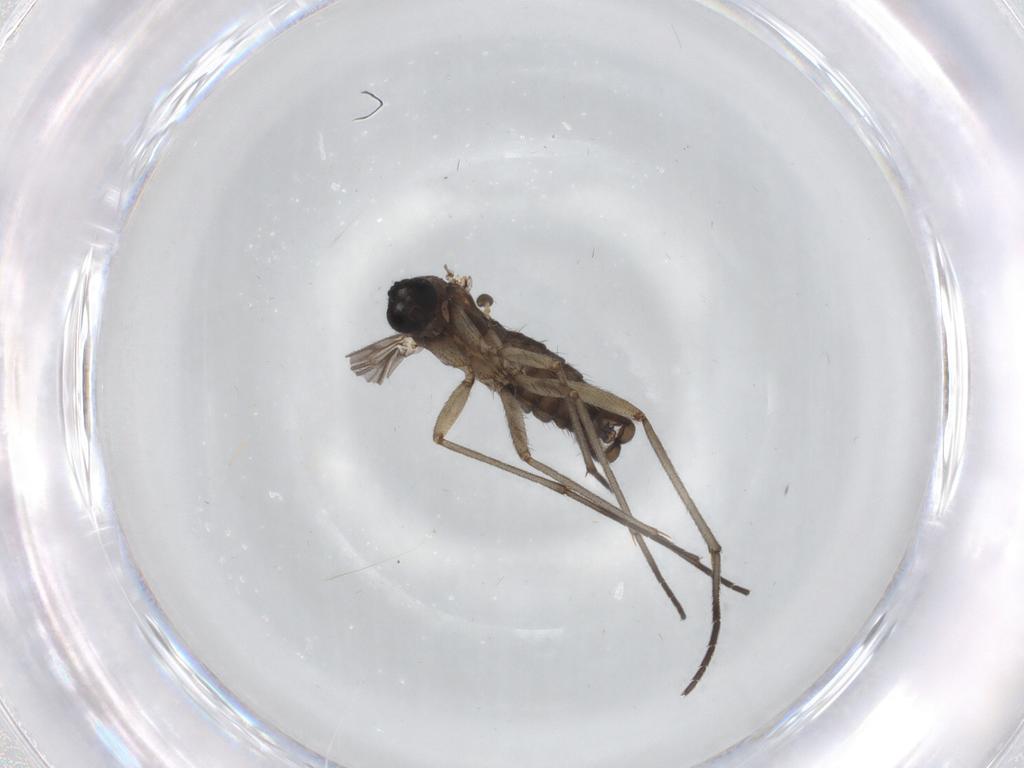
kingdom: Animalia
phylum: Arthropoda
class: Insecta
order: Diptera
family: Sciaridae
